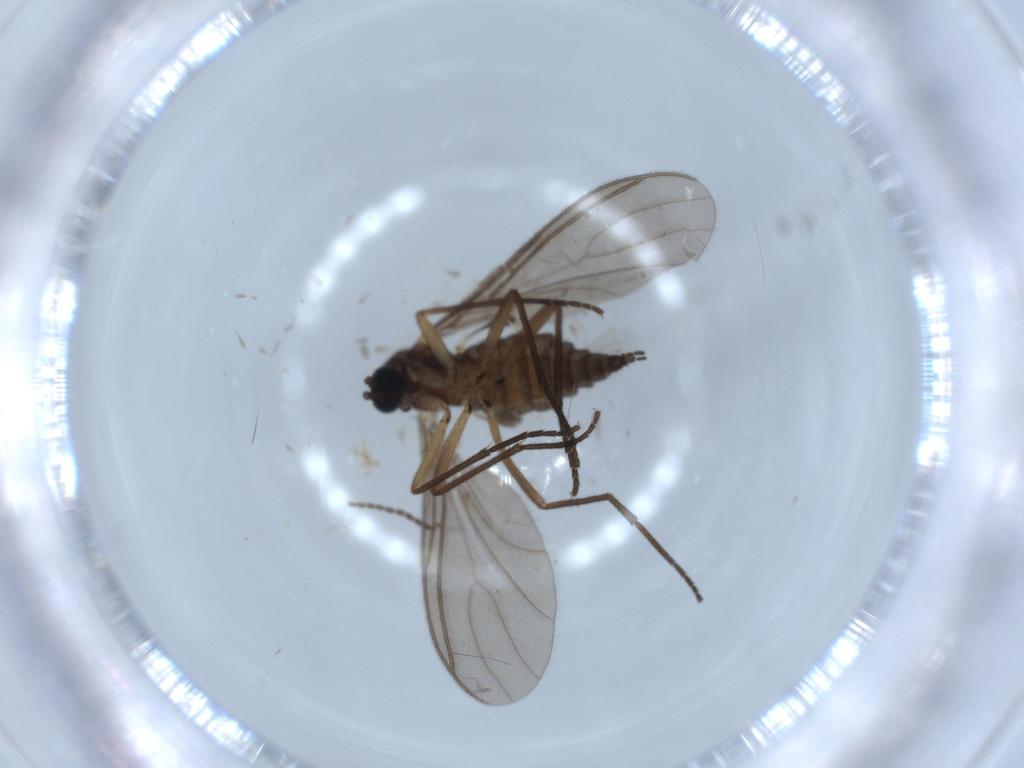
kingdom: Animalia
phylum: Arthropoda
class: Insecta
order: Diptera
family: Sciaridae
